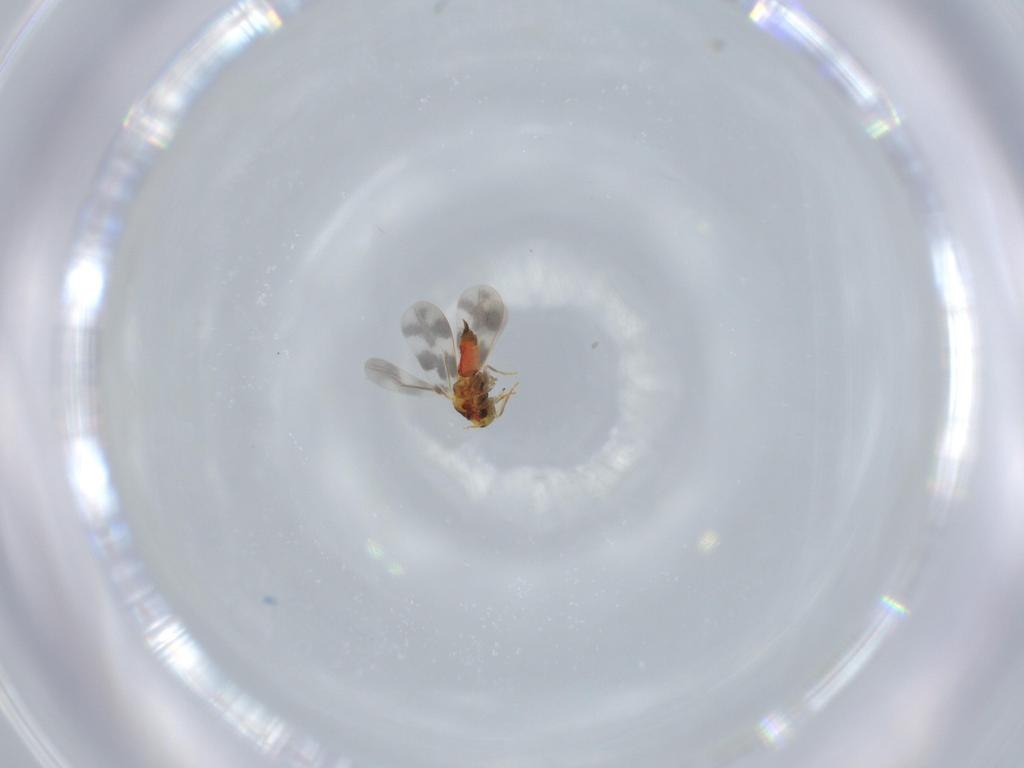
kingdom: Animalia
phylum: Arthropoda
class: Insecta
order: Hemiptera
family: Aleyrodidae
